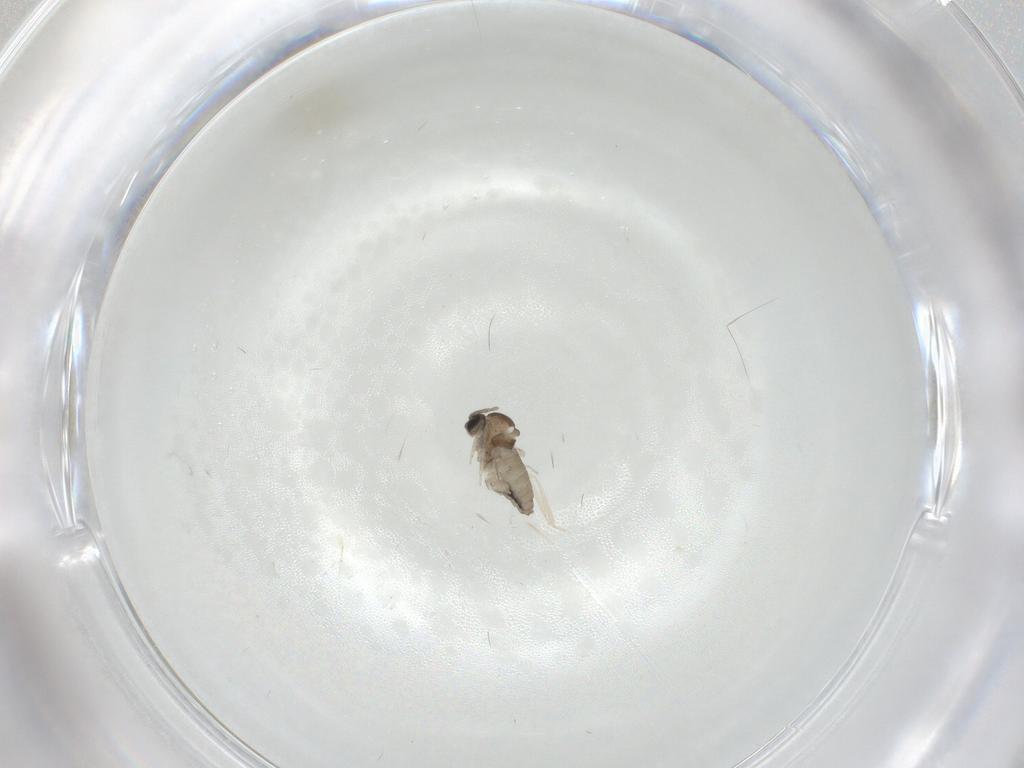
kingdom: Animalia
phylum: Arthropoda
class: Insecta
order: Diptera
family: Cecidomyiidae
